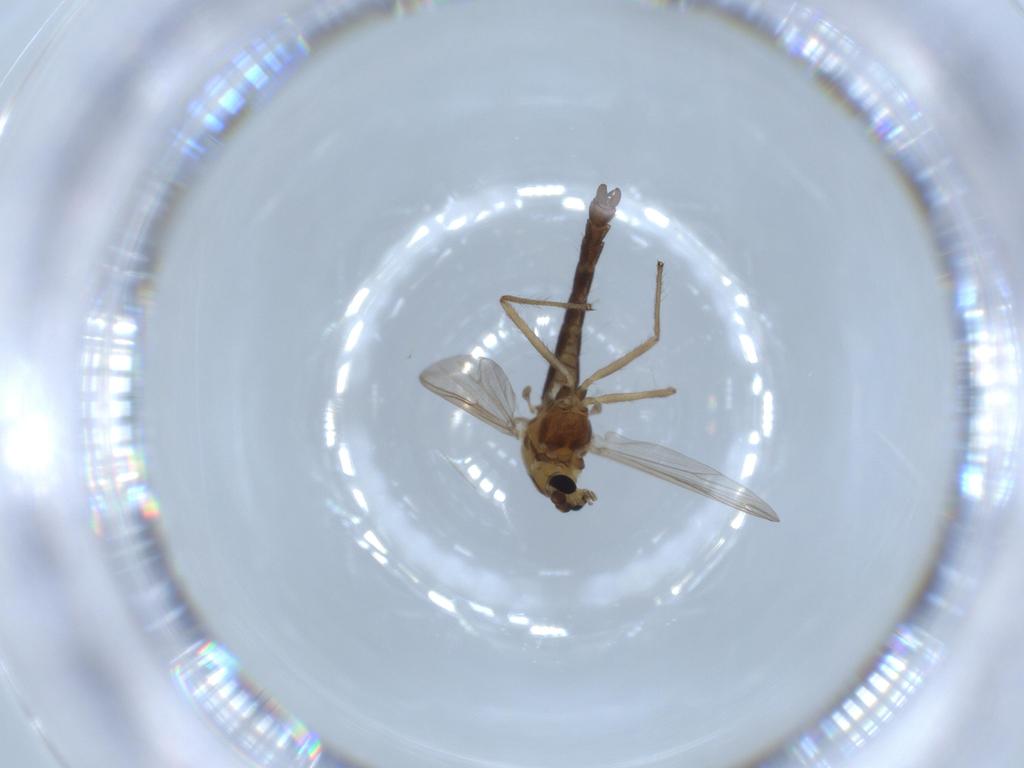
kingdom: Animalia
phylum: Arthropoda
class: Insecta
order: Diptera
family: Chironomidae
